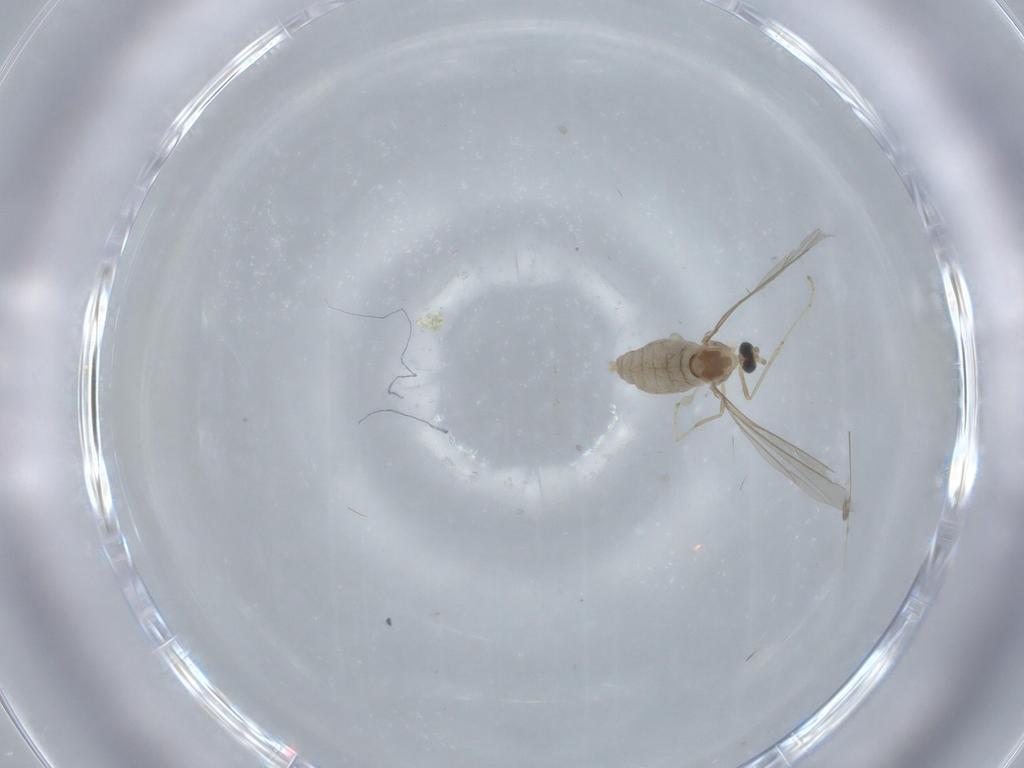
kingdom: Animalia
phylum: Arthropoda
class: Insecta
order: Diptera
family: Cecidomyiidae
